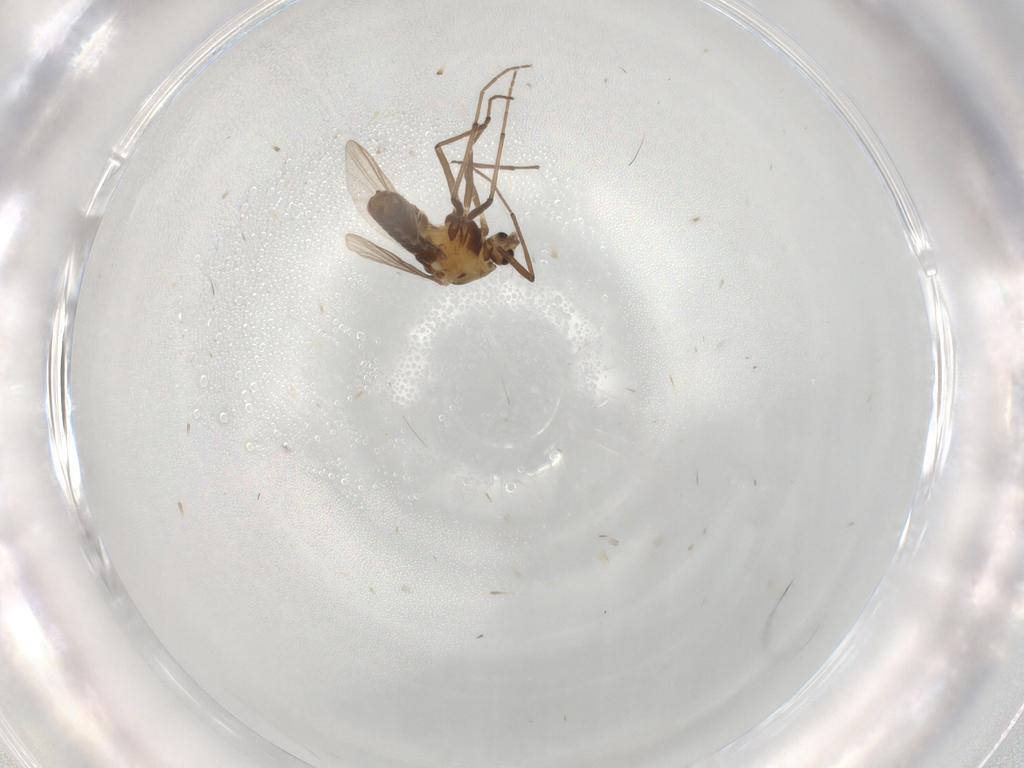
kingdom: Animalia
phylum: Arthropoda
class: Insecta
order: Diptera
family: Chironomidae
